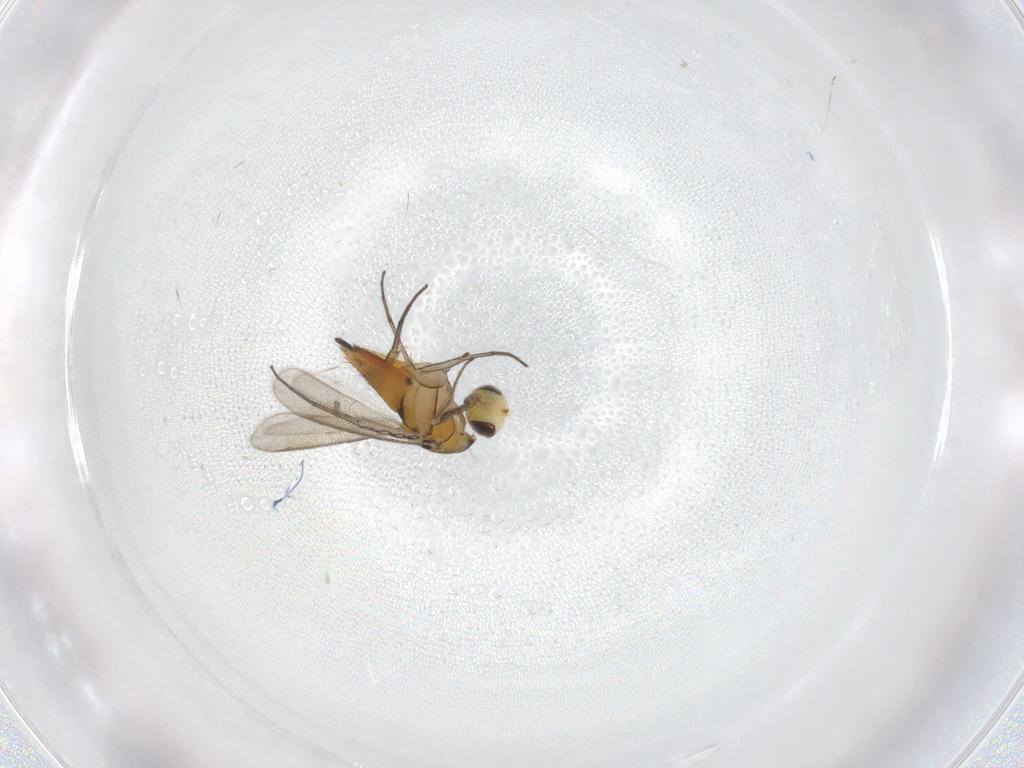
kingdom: Animalia
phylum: Arthropoda
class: Insecta
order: Hymenoptera
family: Eulophidae
